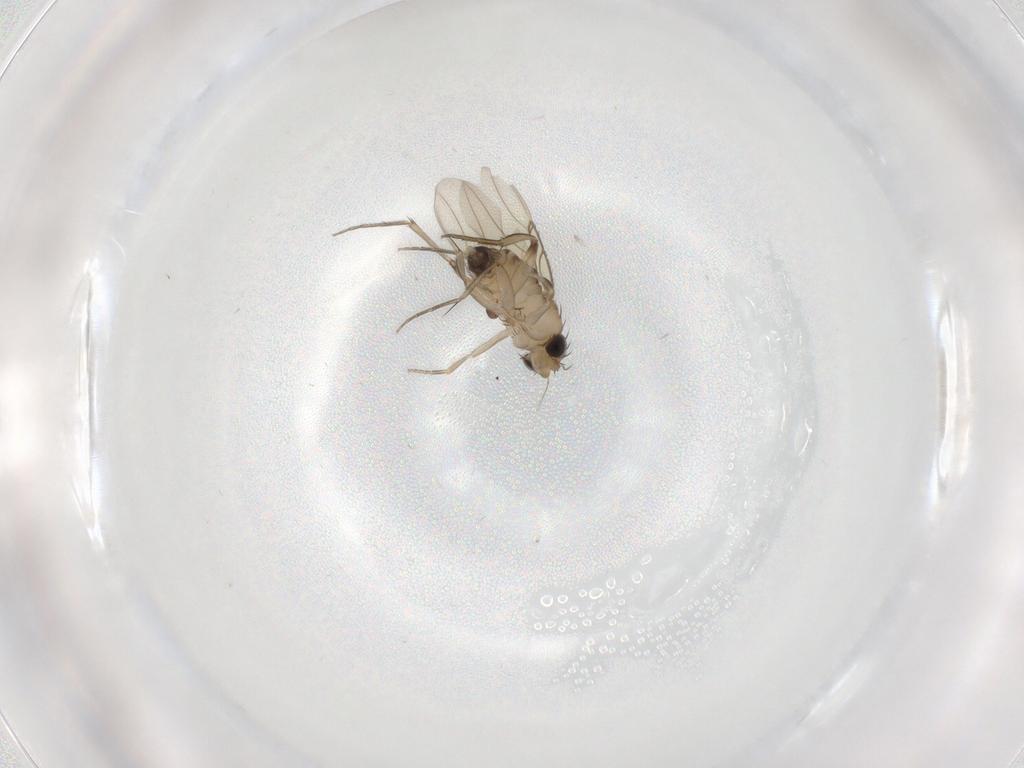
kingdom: Animalia
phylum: Arthropoda
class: Insecta
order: Diptera
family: Phoridae
